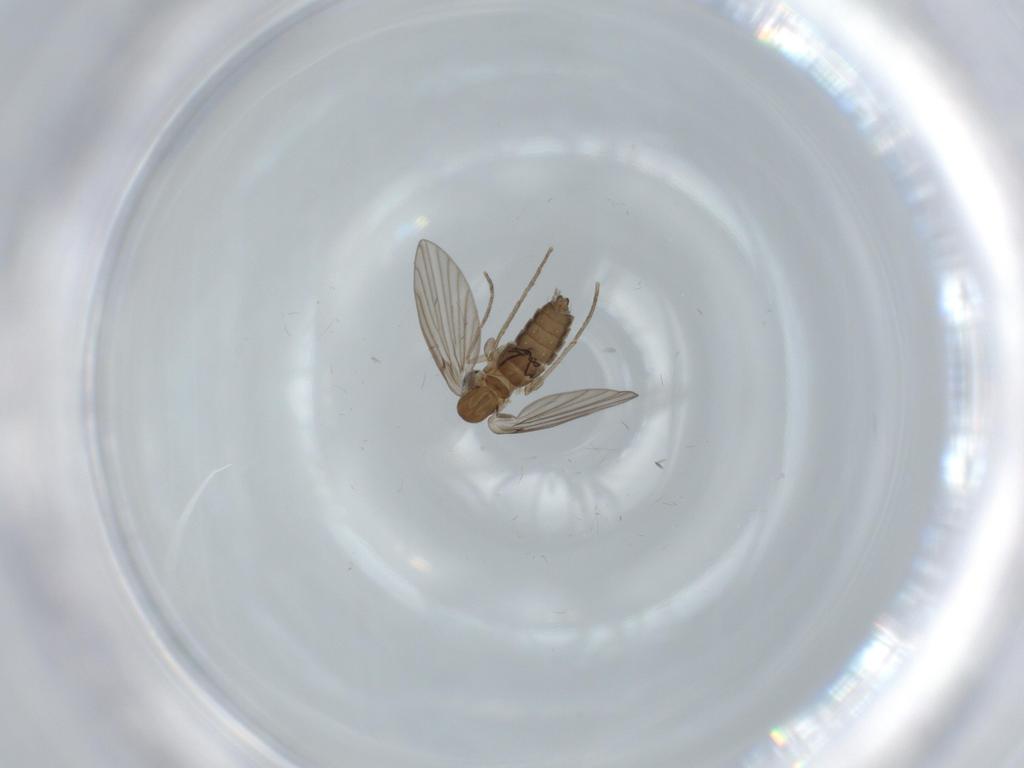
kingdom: Animalia
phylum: Arthropoda
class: Insecta
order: Diptera
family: Psychodidae
